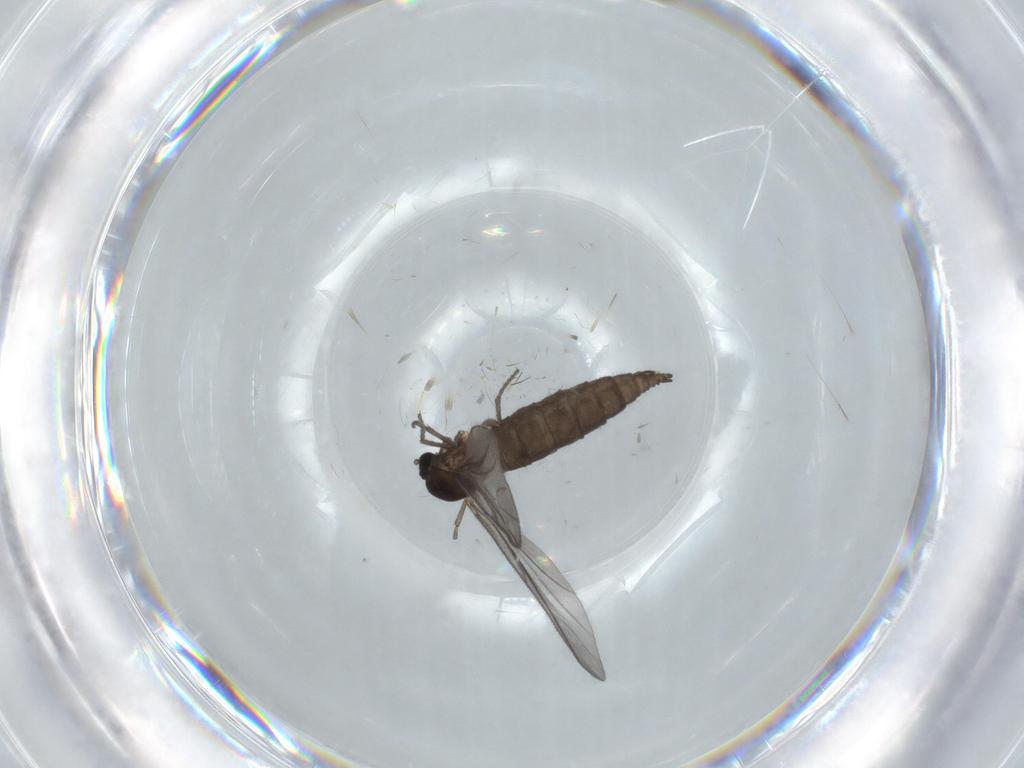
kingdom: Animalia
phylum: Arthropoda
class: Insecta
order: Diptera
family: Sciaridae
